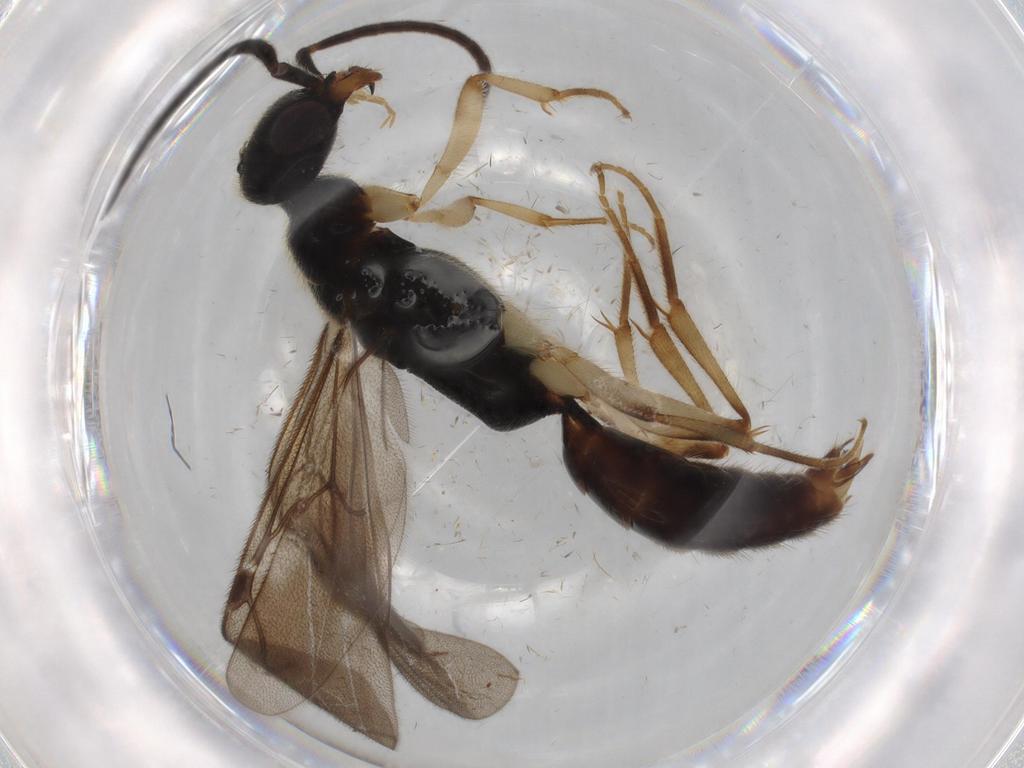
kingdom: Animalia
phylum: Arthropoda
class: Insecta
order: Hymenoptera
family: Bethylidae
